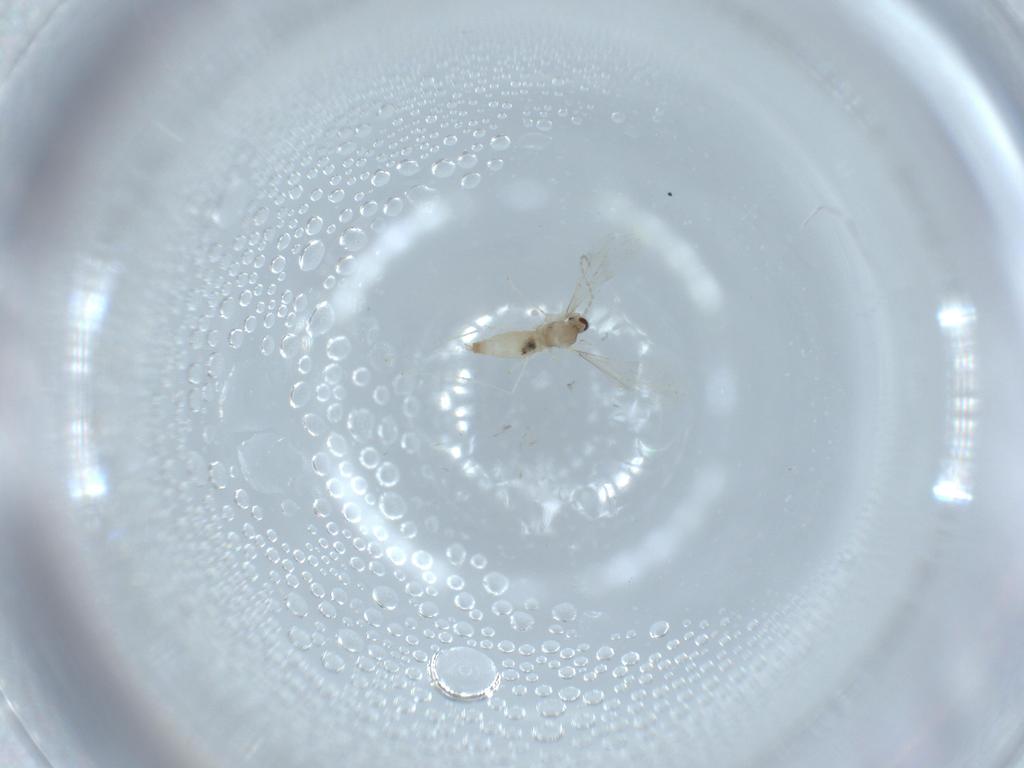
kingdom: Animalia
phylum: Arthropoda
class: Insecta
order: Diptera
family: Cecidomyiidae
